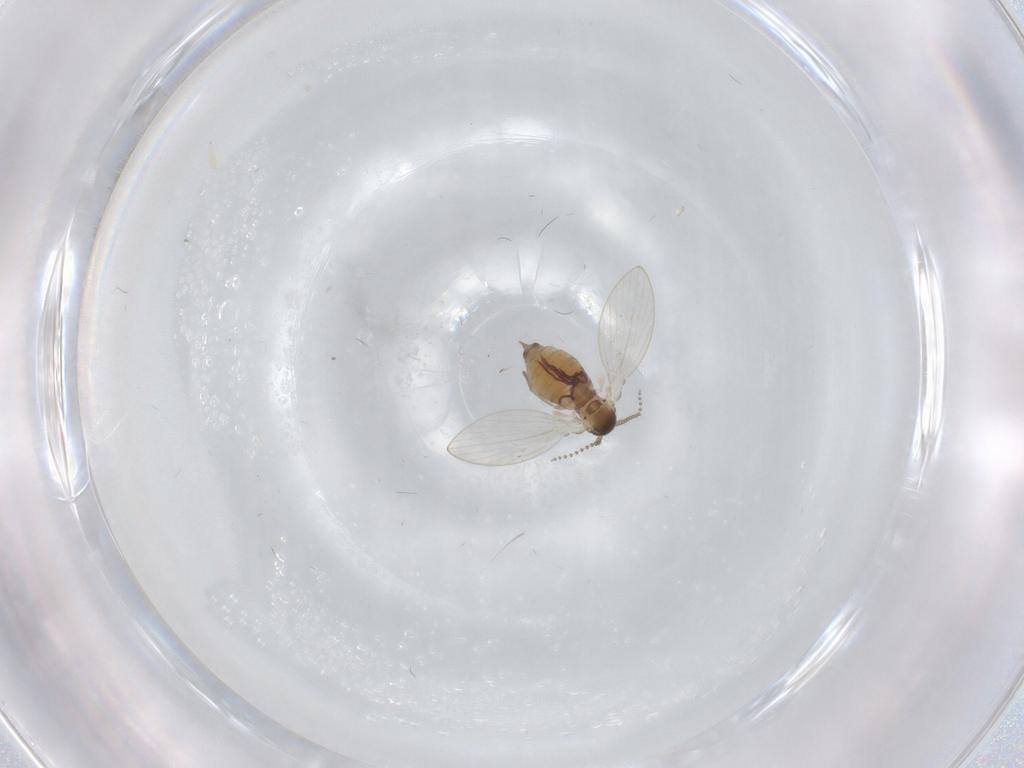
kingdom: Animalia
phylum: Arthropoda
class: Insecta
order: Diptera
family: Psychodidae
